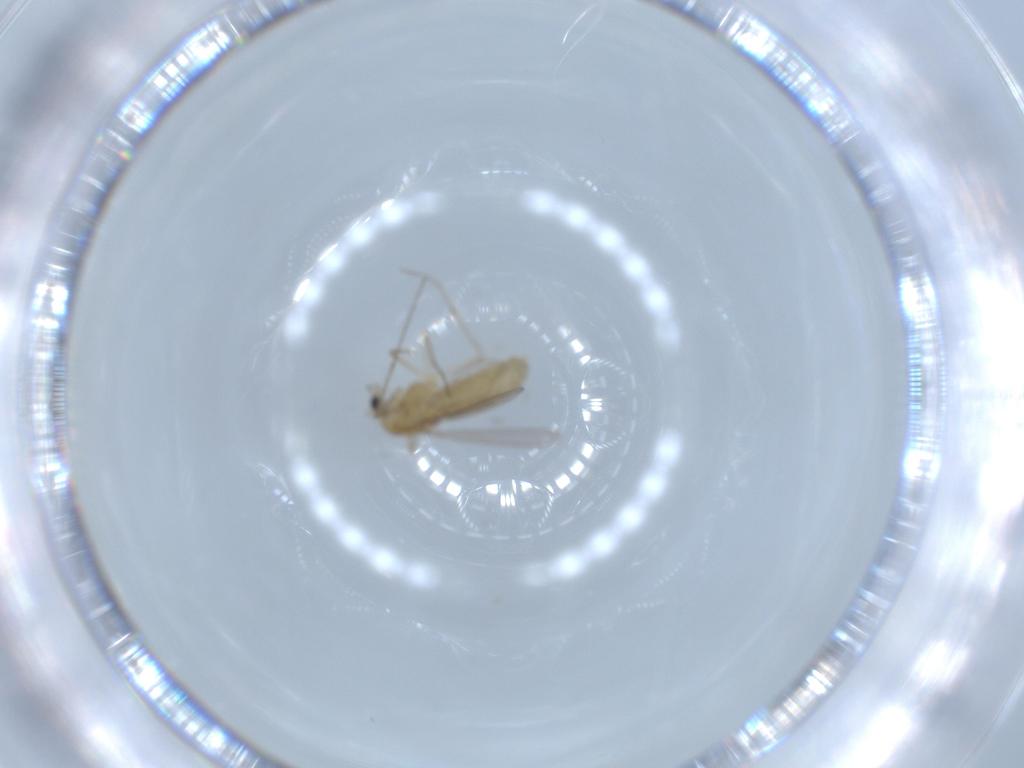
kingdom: Animalia
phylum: Arthropoda
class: Insecta
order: Diptera
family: Chironomidae
